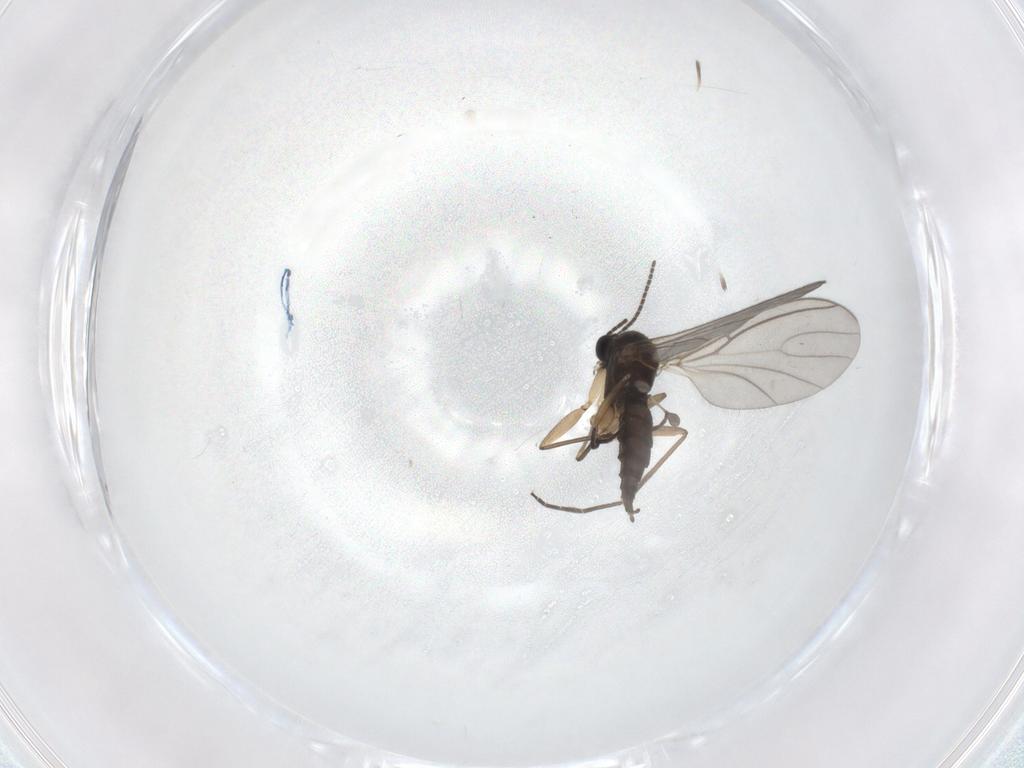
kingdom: Animalia
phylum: Arthropoda
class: Insecta
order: Diptera
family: Sciaridae
